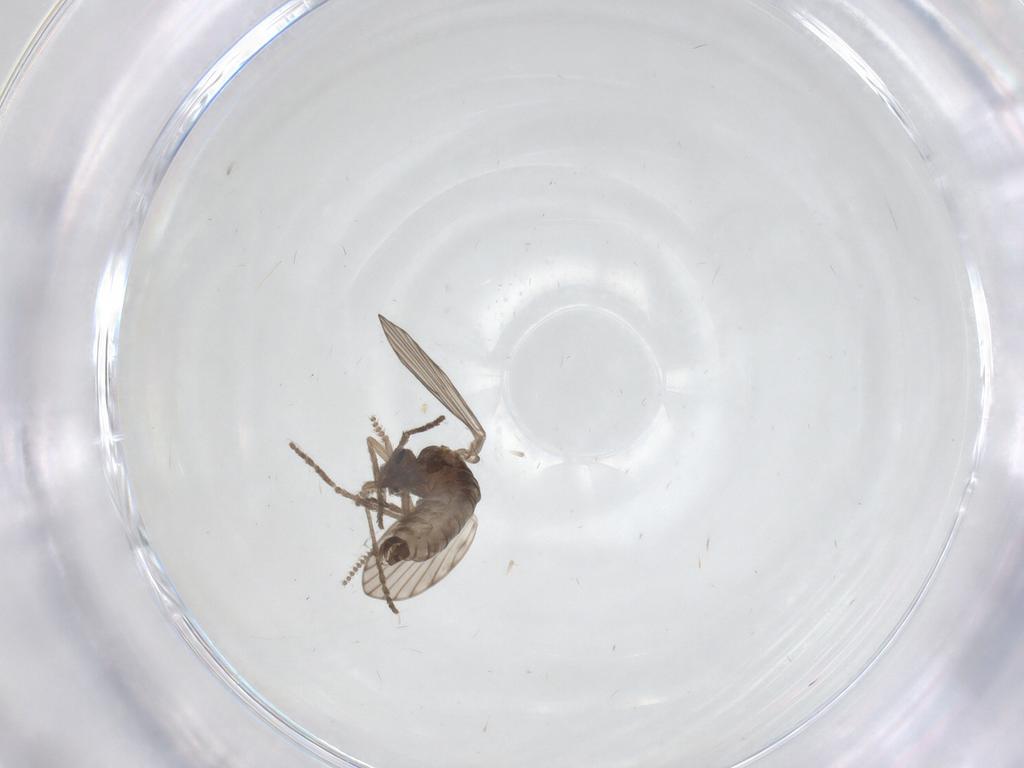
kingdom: Animalia
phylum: Arthropoda
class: Insecta
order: Diptera
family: Psychodidae
